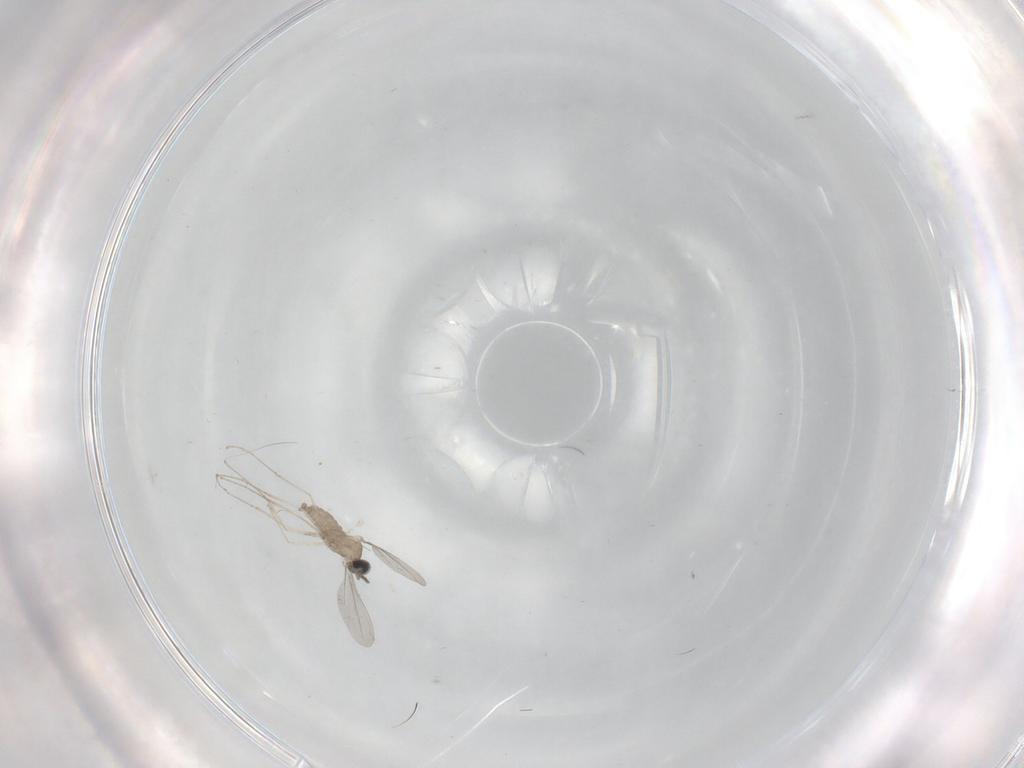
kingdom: Animalia
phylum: Arthropoda
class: Insecta
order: Diptera
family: Cecidomyiidae
